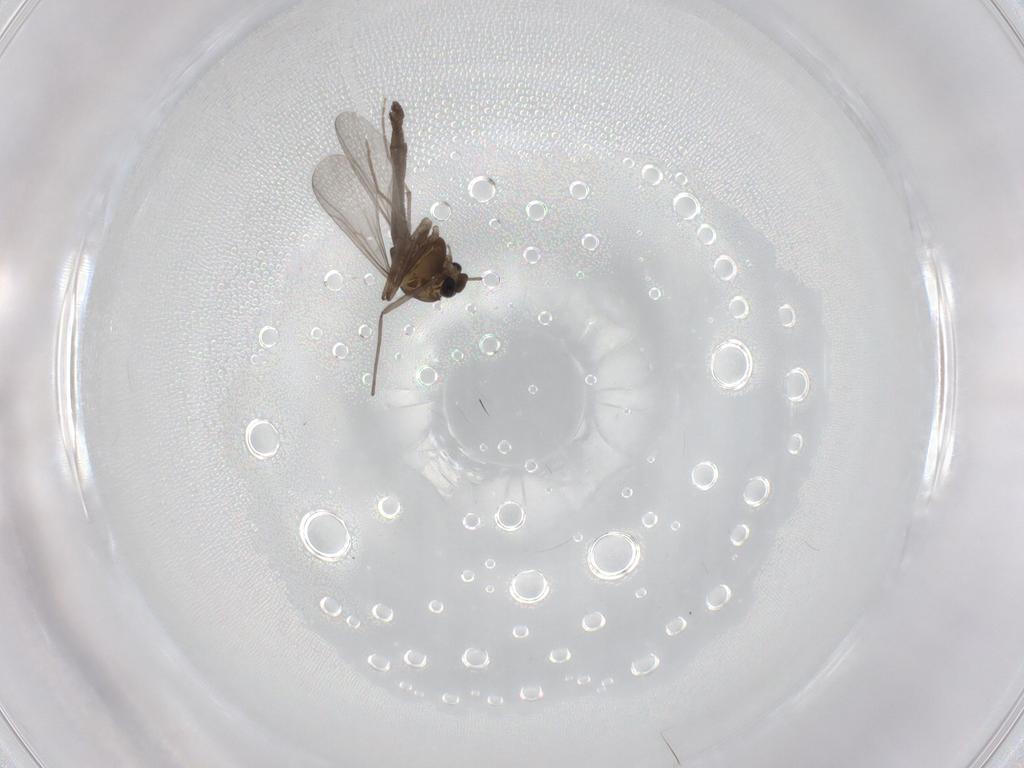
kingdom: Animalia
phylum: Arthropoda
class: Insecta
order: Diptera
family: Chironomidae
